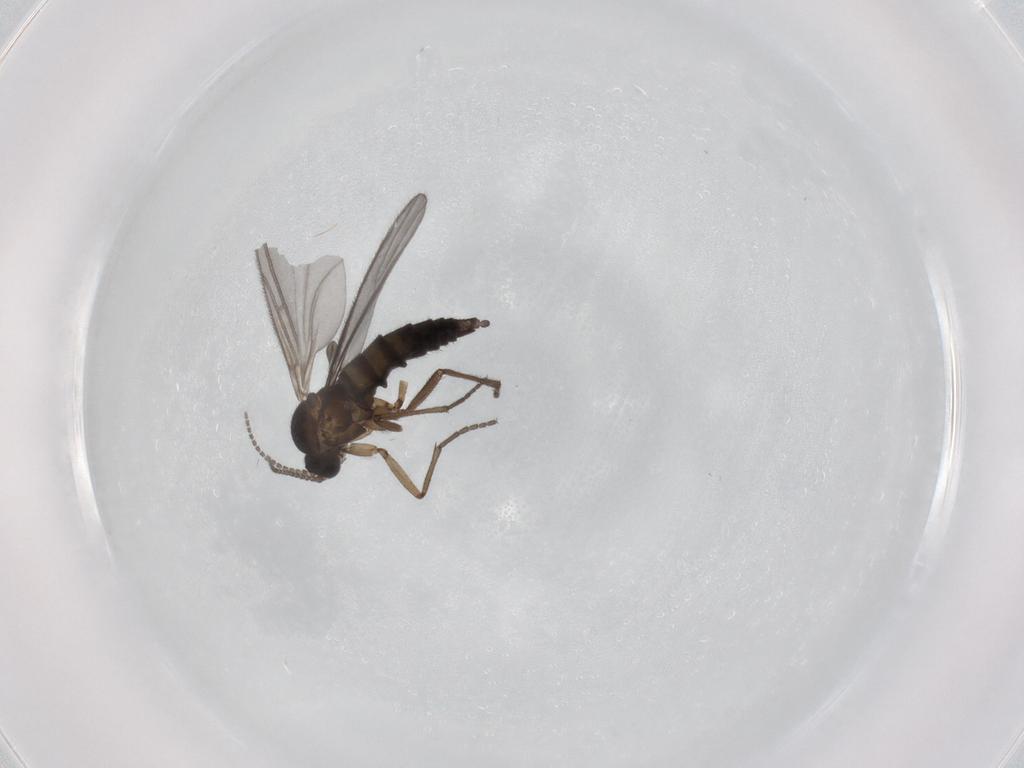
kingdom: Animalia
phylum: Arthropoda
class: Insecta
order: Diptera
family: Sciaridae
